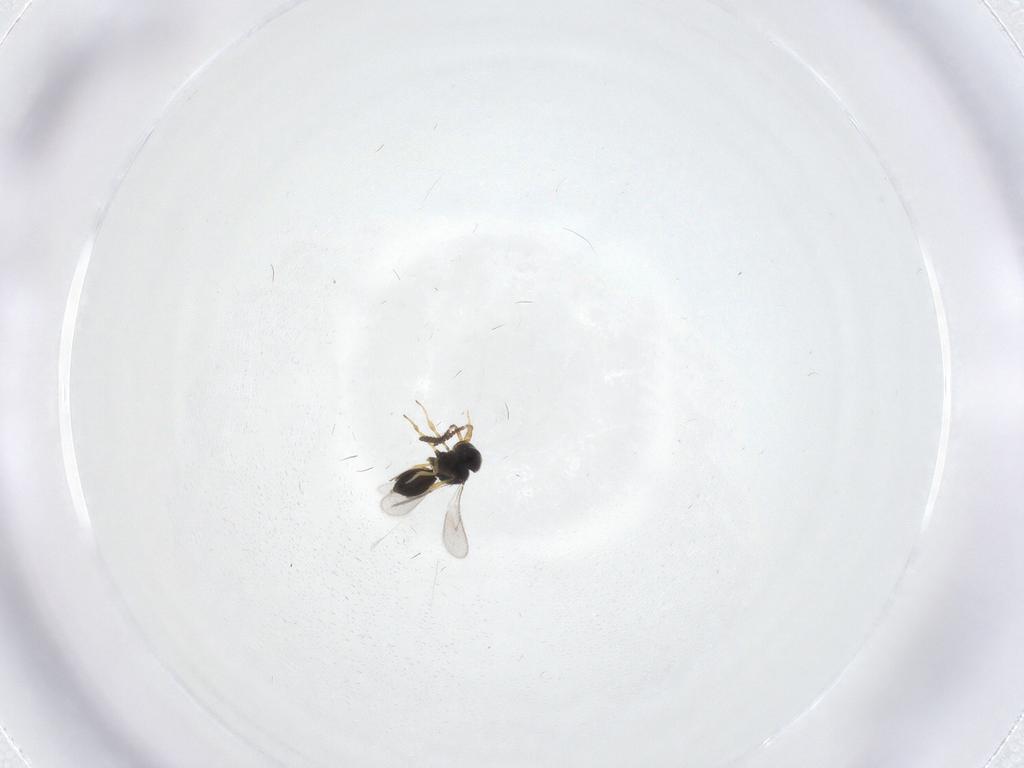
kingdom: Animalia
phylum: Arthropoda
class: Insecta
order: Hymenoptera
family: Scelionidae
